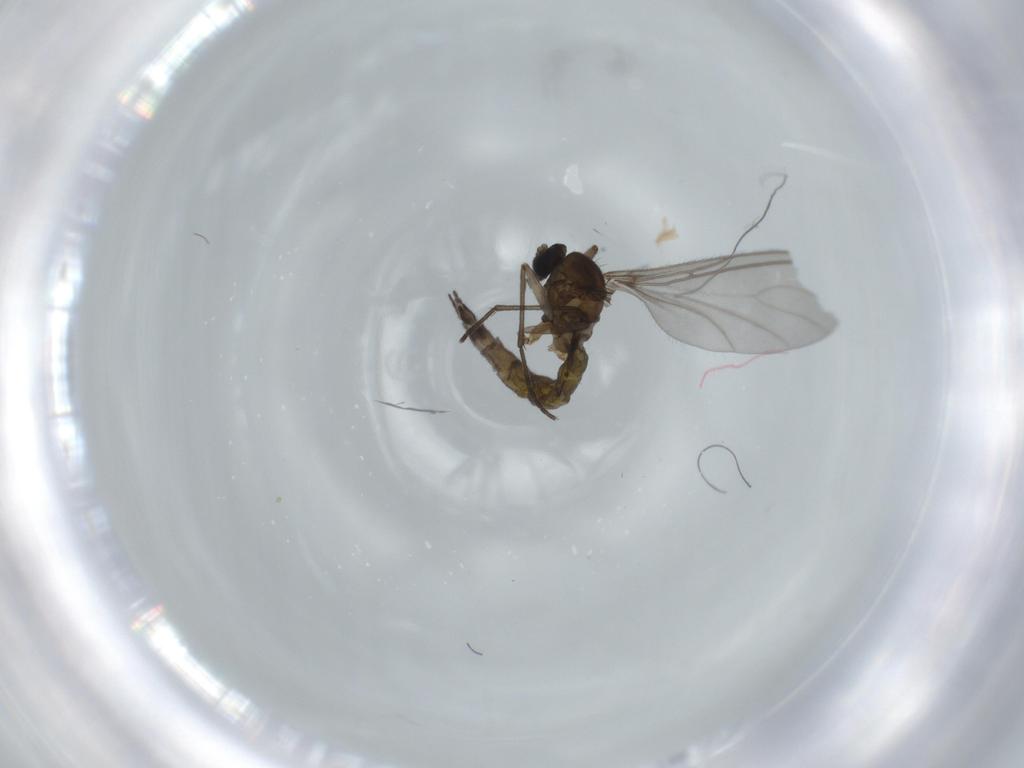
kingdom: Animalia
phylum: Arthropoda
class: Insecta
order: Diptera
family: Sciaridae
